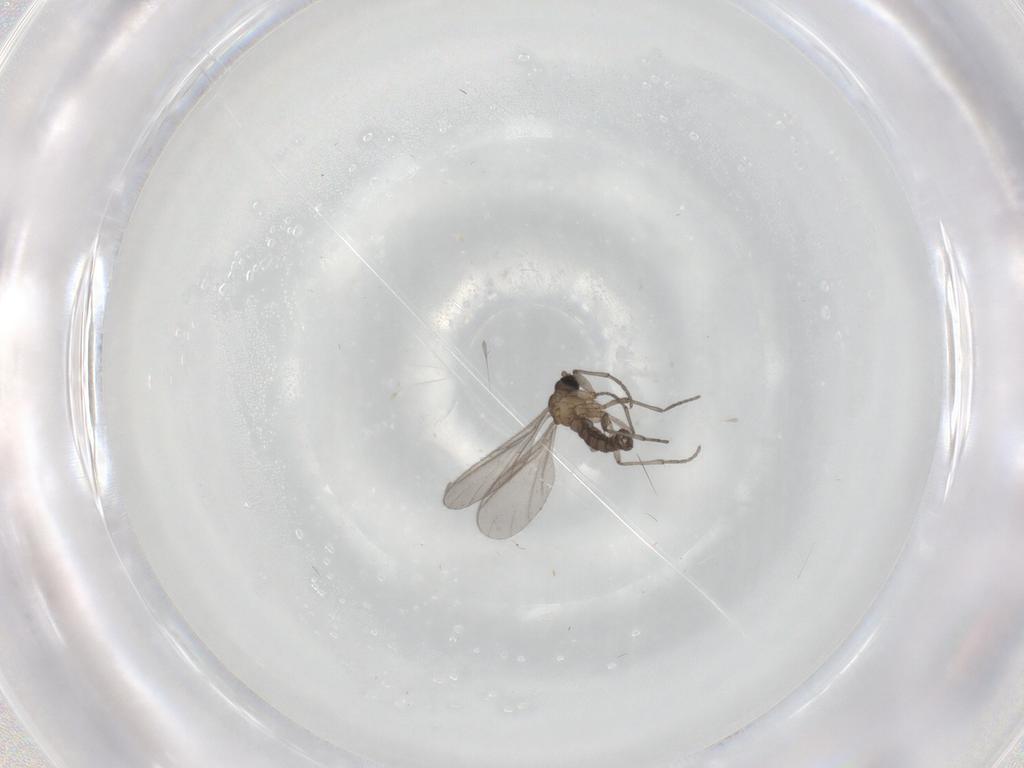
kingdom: Animalia
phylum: Arthropoda
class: Insecta
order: Diptera
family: Sciaridae
